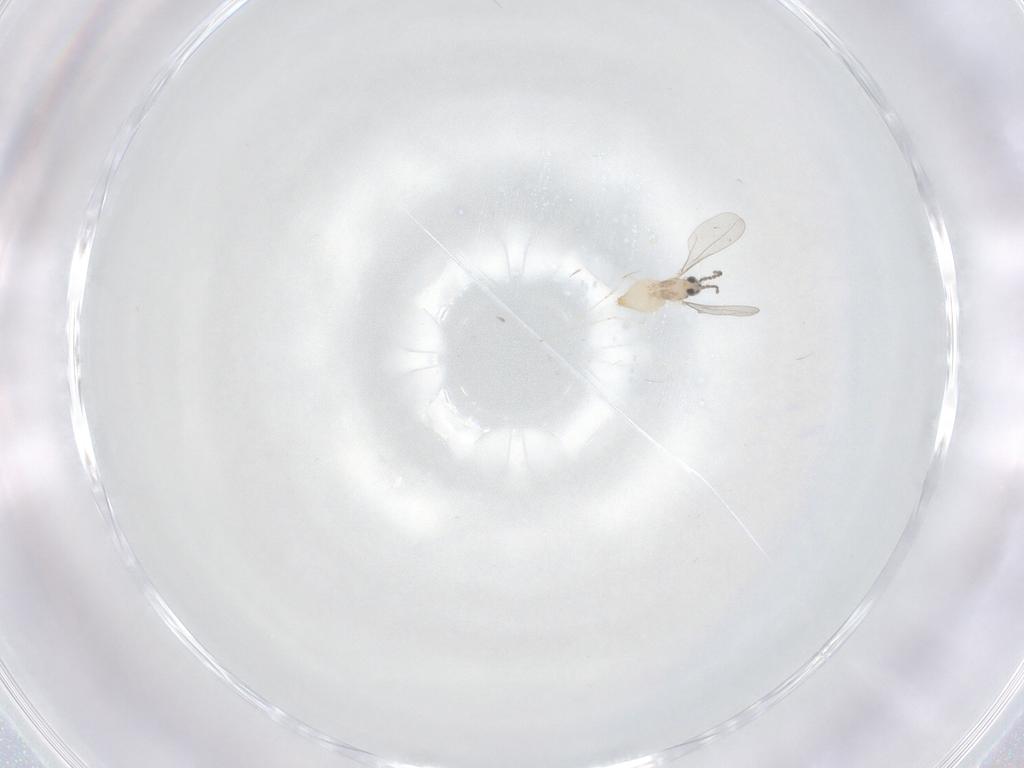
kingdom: Animalia
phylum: Arthropoda
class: Insecta
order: Diptera
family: Cecidomyiidae
